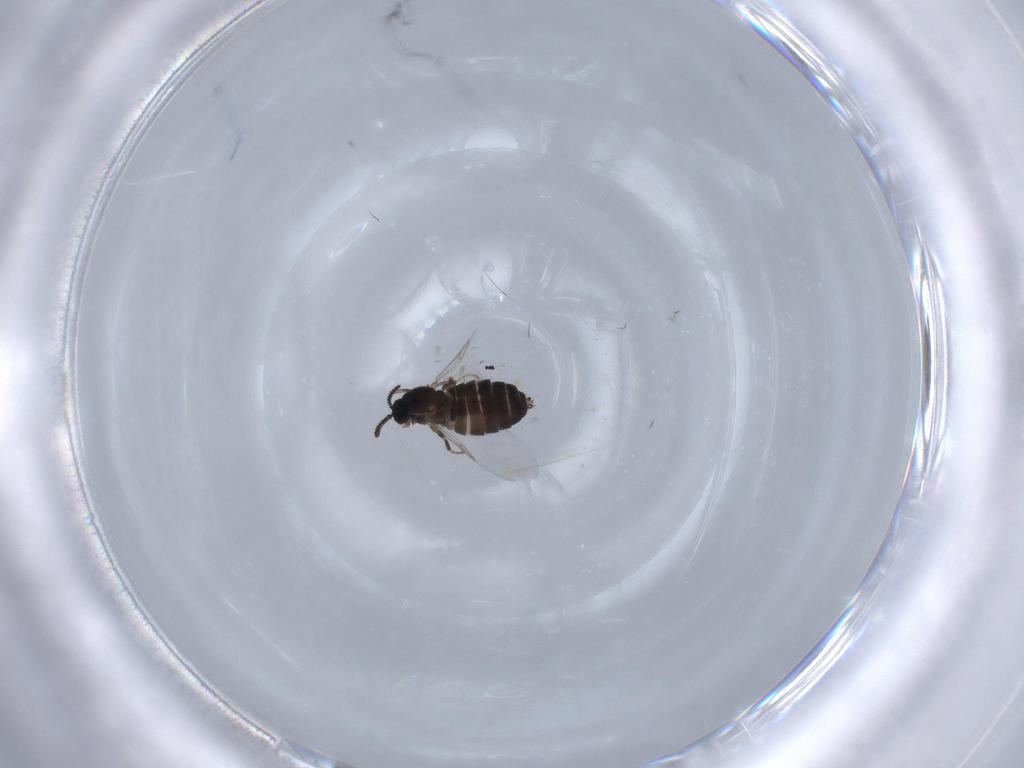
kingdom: Animalia
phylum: Arthropoda
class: Insecta
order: Diptera
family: Scatopsidae
